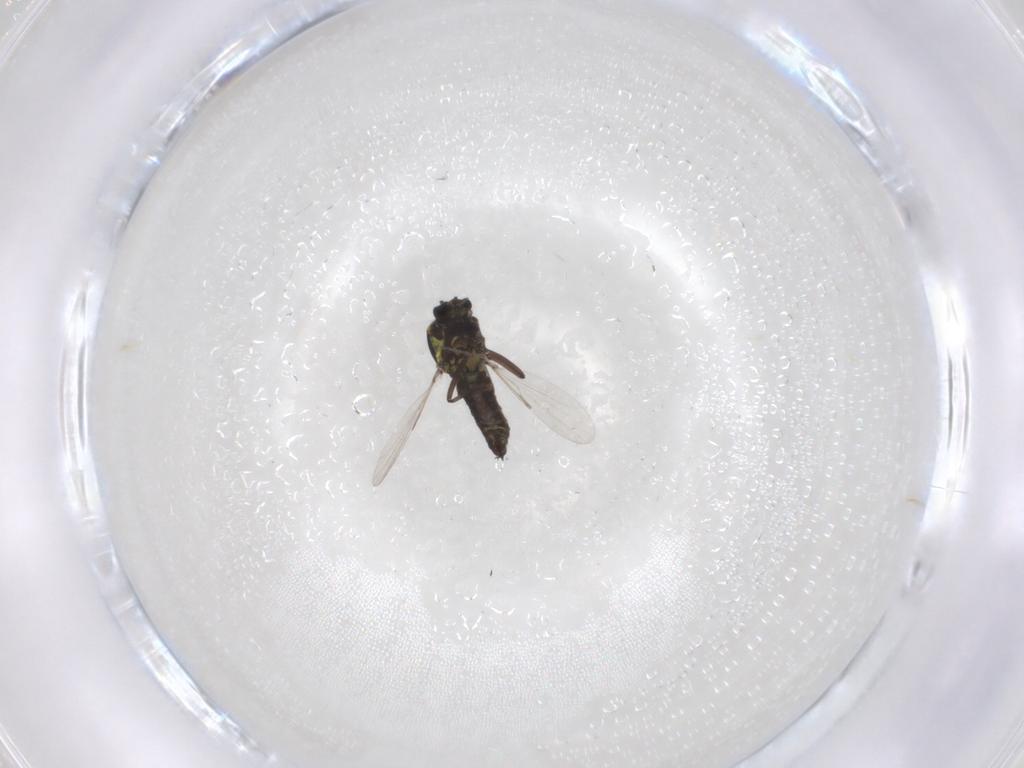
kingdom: Animalia
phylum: Arthropoda
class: Insecta
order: Diptera
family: Ceratopogonidae
